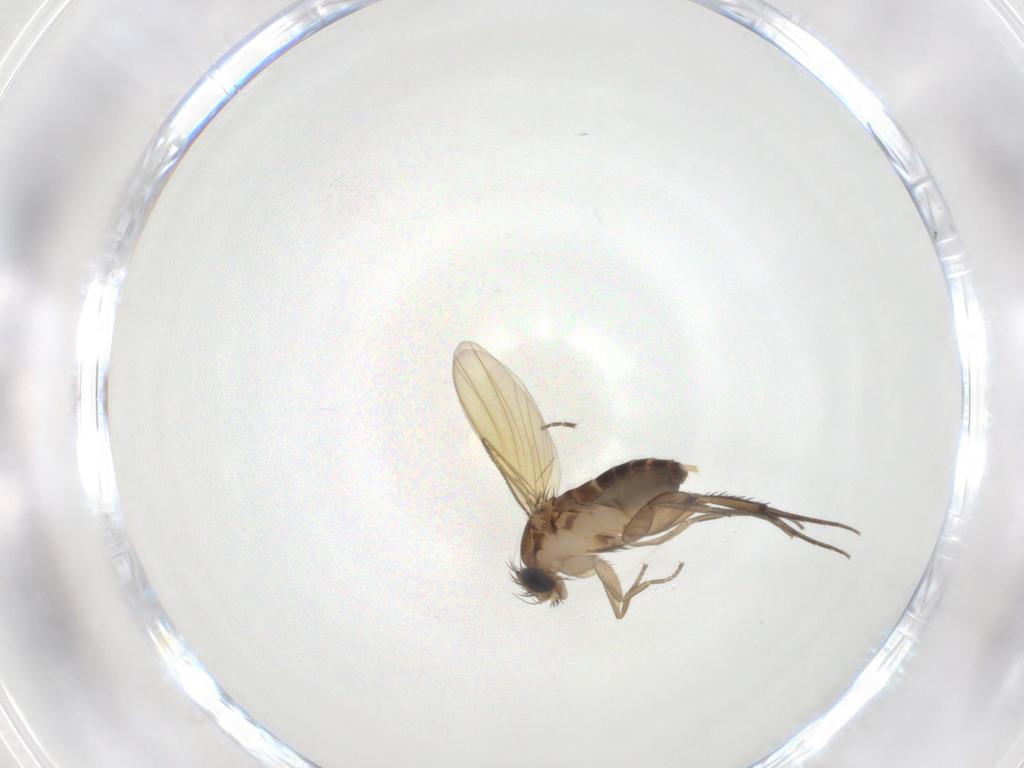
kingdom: Animalia
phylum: Arthropoda
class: Insecta
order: Diptera
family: Phoridae
